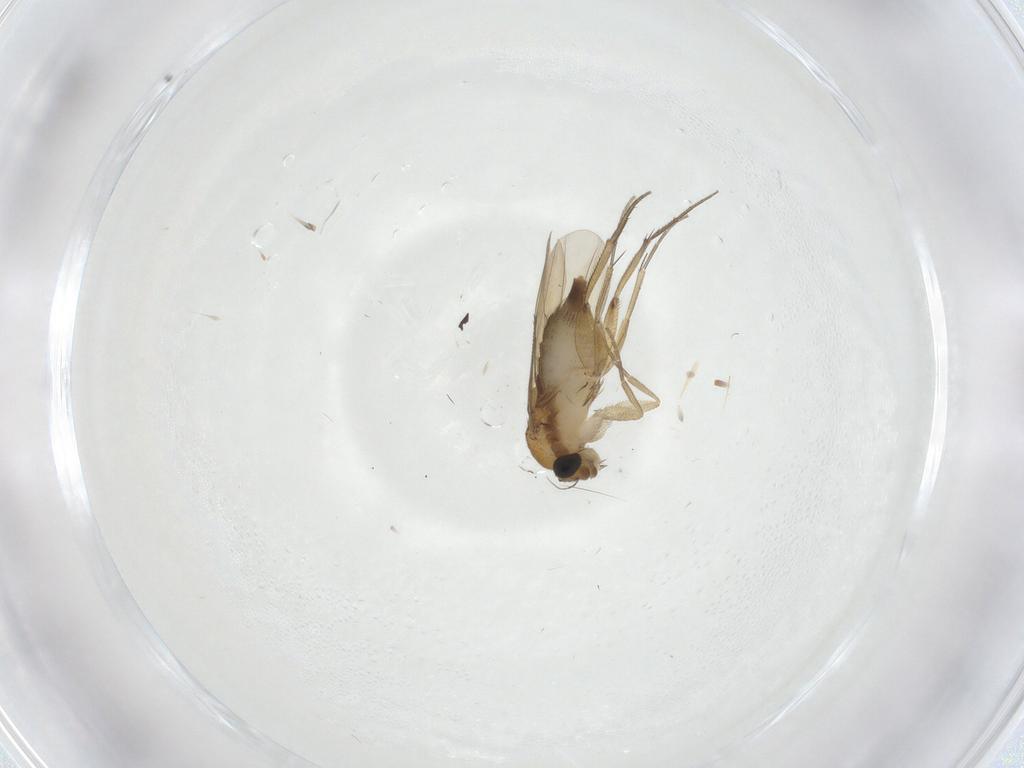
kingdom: Animalia
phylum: Arthropoda
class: Insecta
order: Diptera
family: Phoridae
